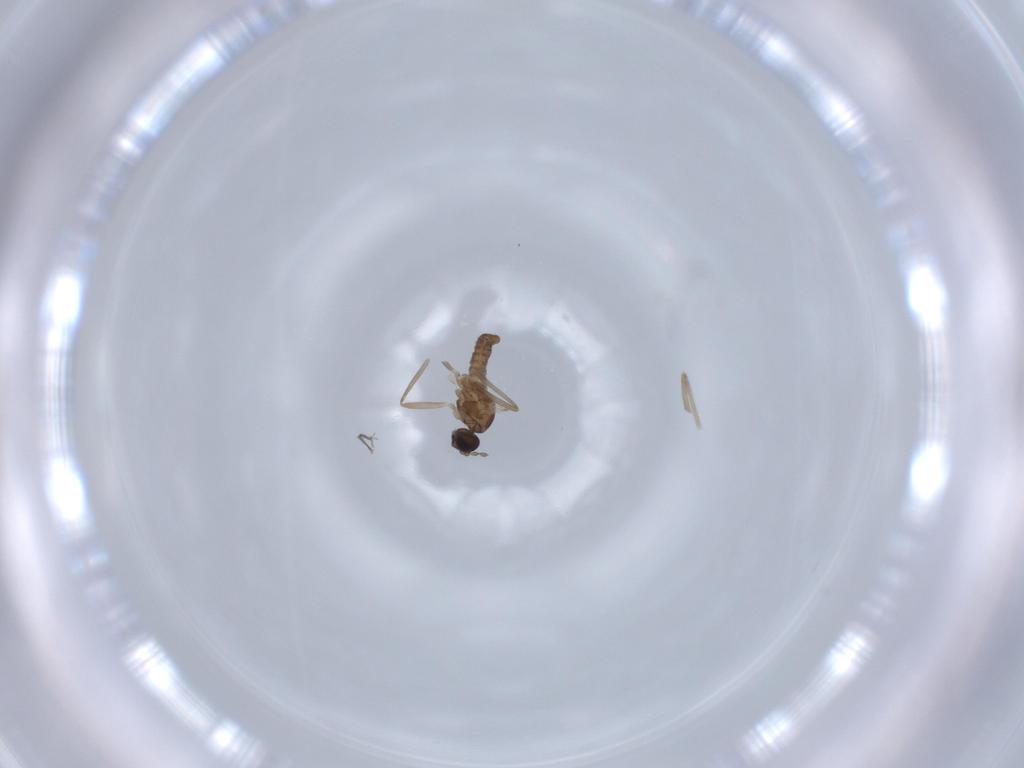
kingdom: Animalia
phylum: Arthropoda
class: Insecta
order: Diptera
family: Cecidomyiidae
